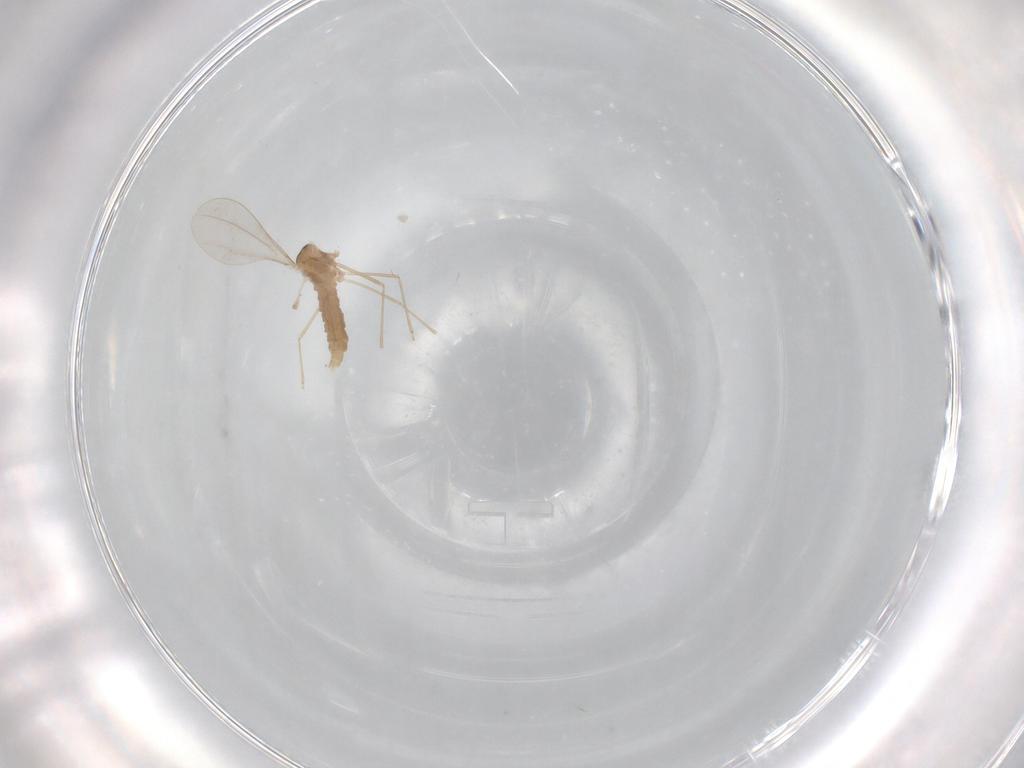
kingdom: Animalia
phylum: Arthropoda
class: Insecta
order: Diptera
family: Cecidomyiidae
